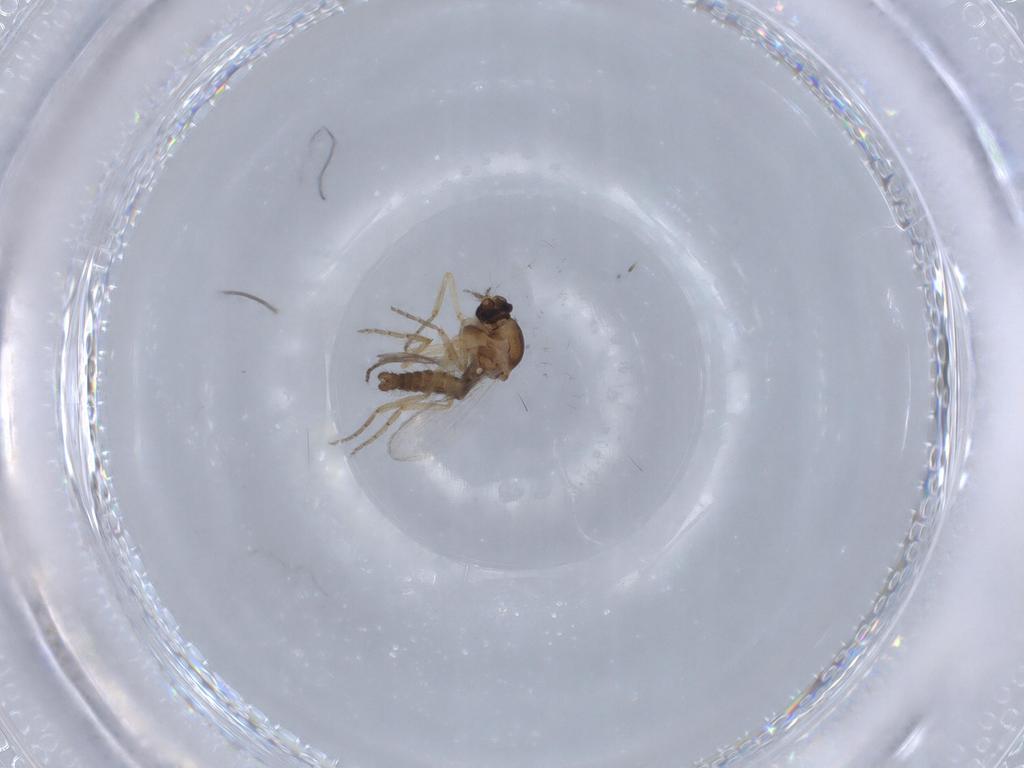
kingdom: Animalia
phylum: Arthropoda
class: Insecta
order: Diptera
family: Ceratopogonidae
